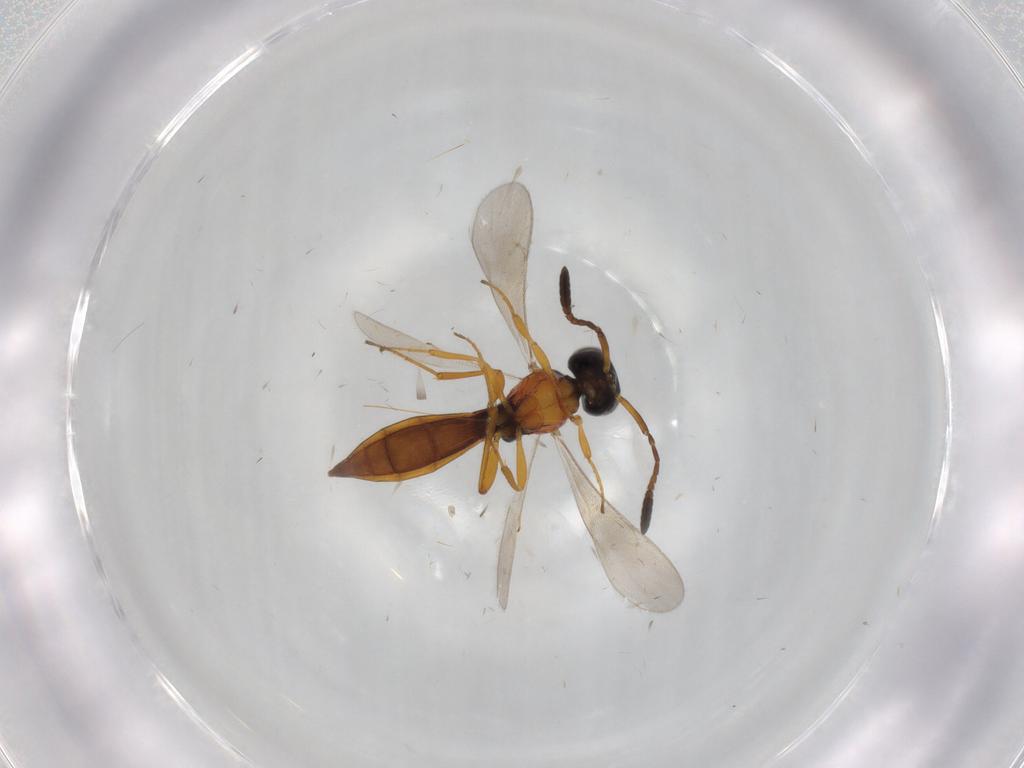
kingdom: Animalia
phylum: Arthropoda
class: Insecta
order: Hymenoptera
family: Scelionidae
